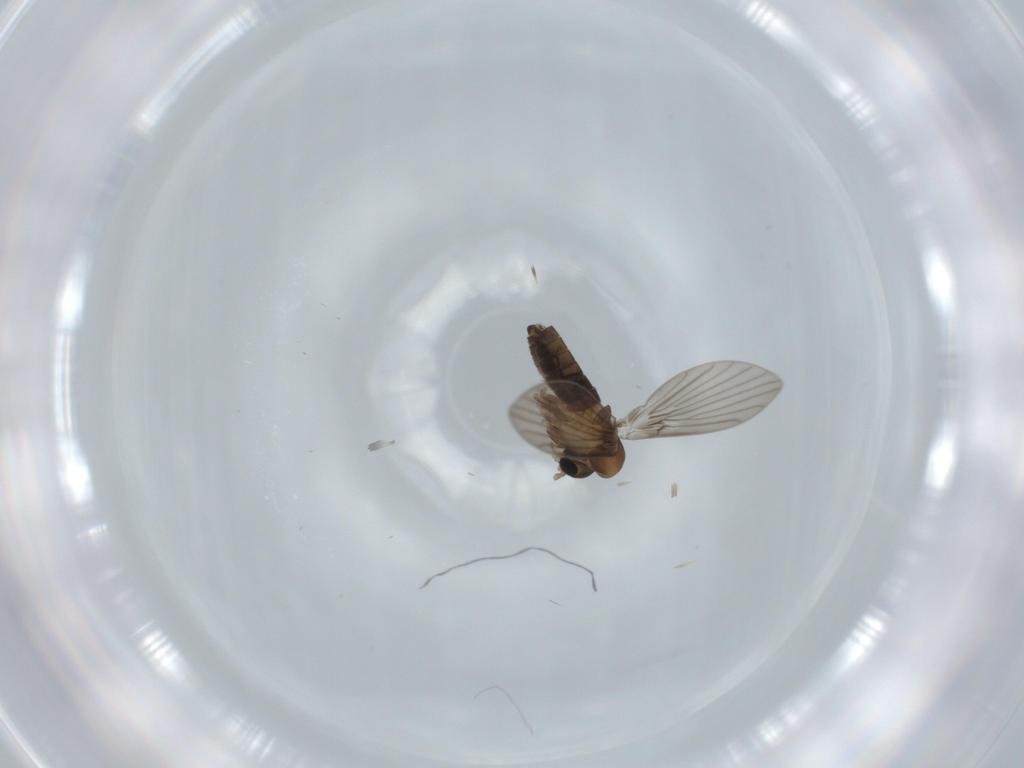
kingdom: Animalia
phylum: Arthropoda
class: Insecta
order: Diptera
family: Psychodidae
